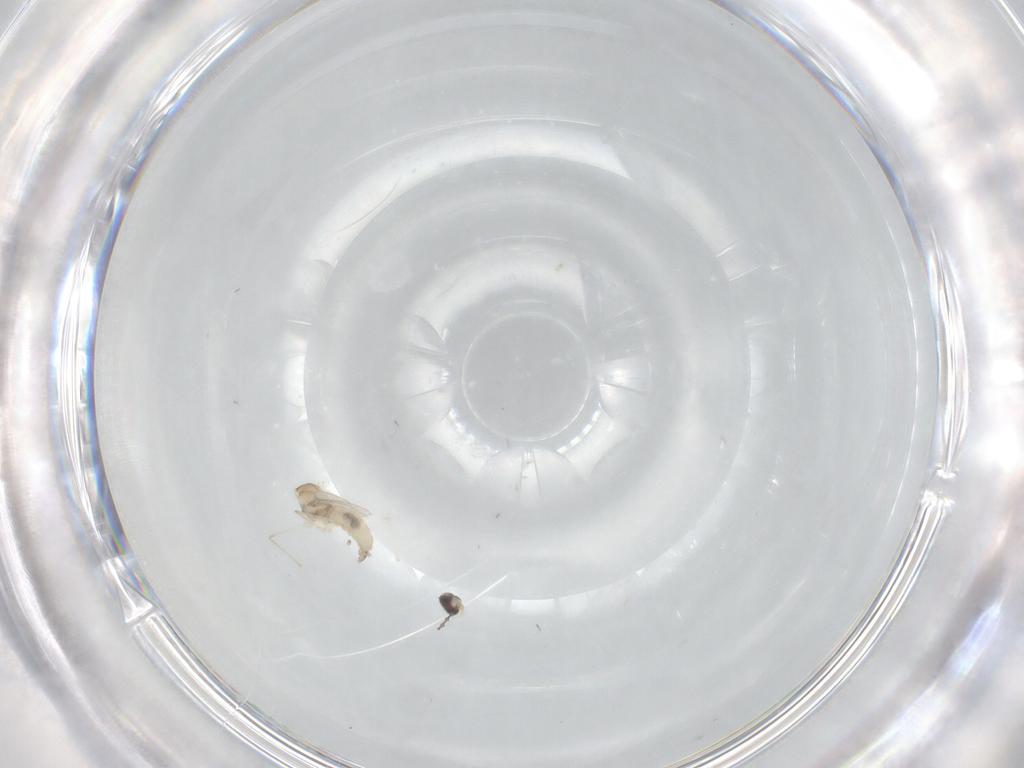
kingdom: Animalia
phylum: Arthropoda
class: Insecta
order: Diptera
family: Cecidomyiidae
